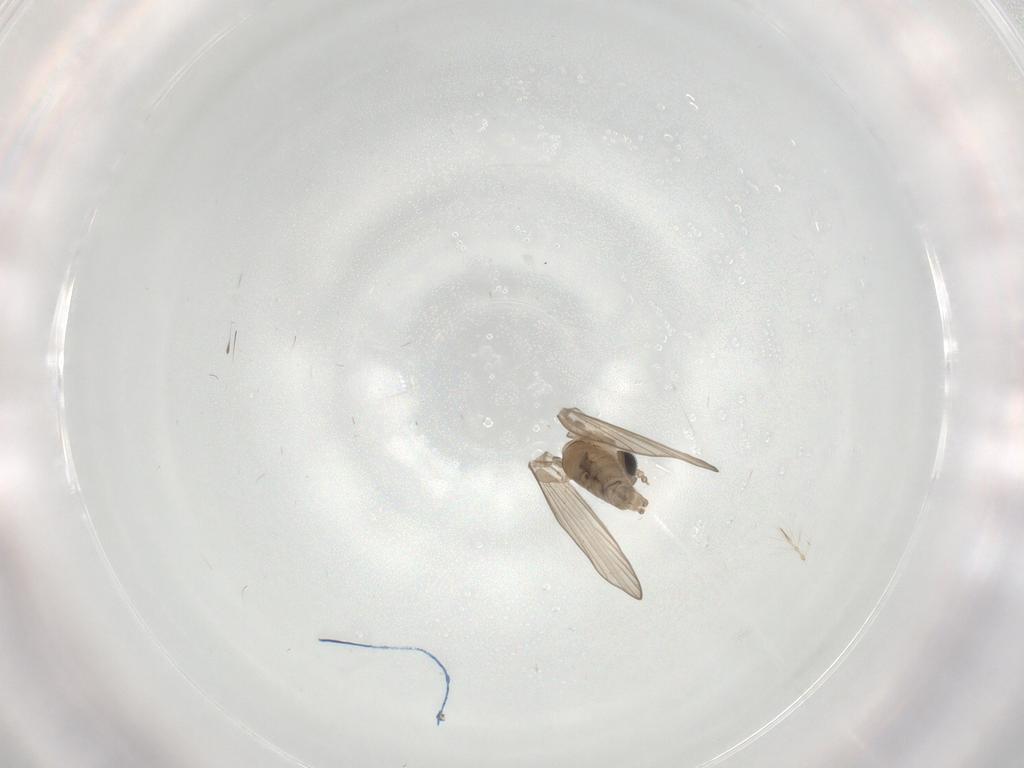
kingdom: Animalia
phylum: Arthropoda
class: Insecta
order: Diptera
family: Psychodidae
